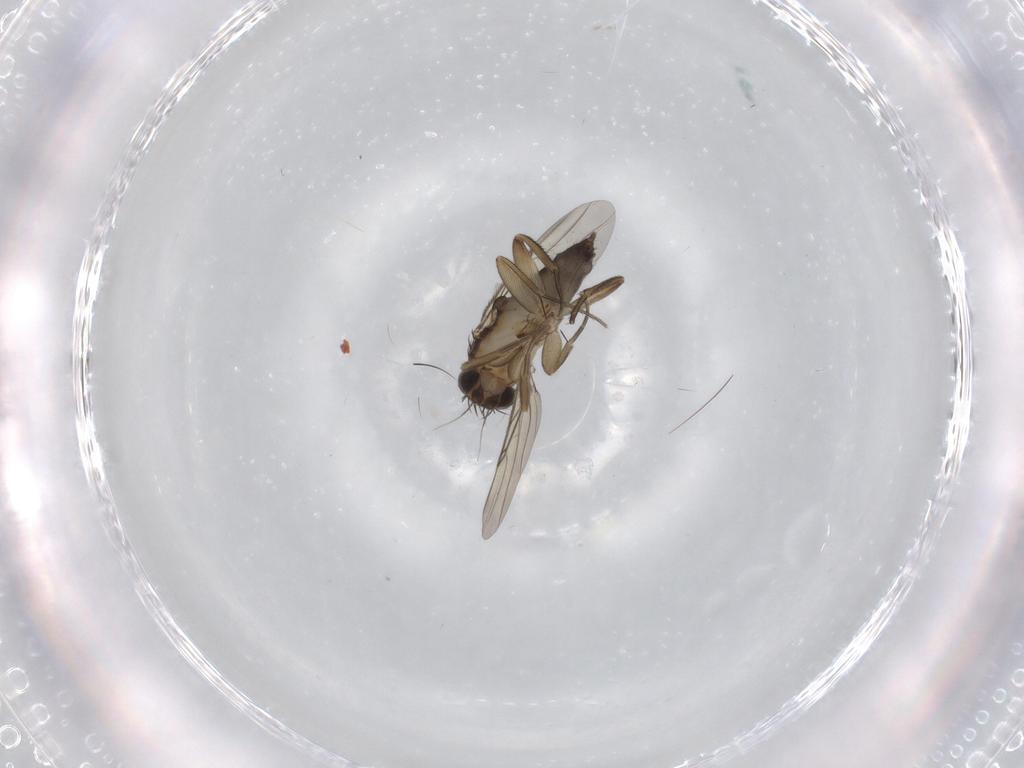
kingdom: Animalia
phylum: Arthropoda
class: Insecta
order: Diptera
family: Phoridae
